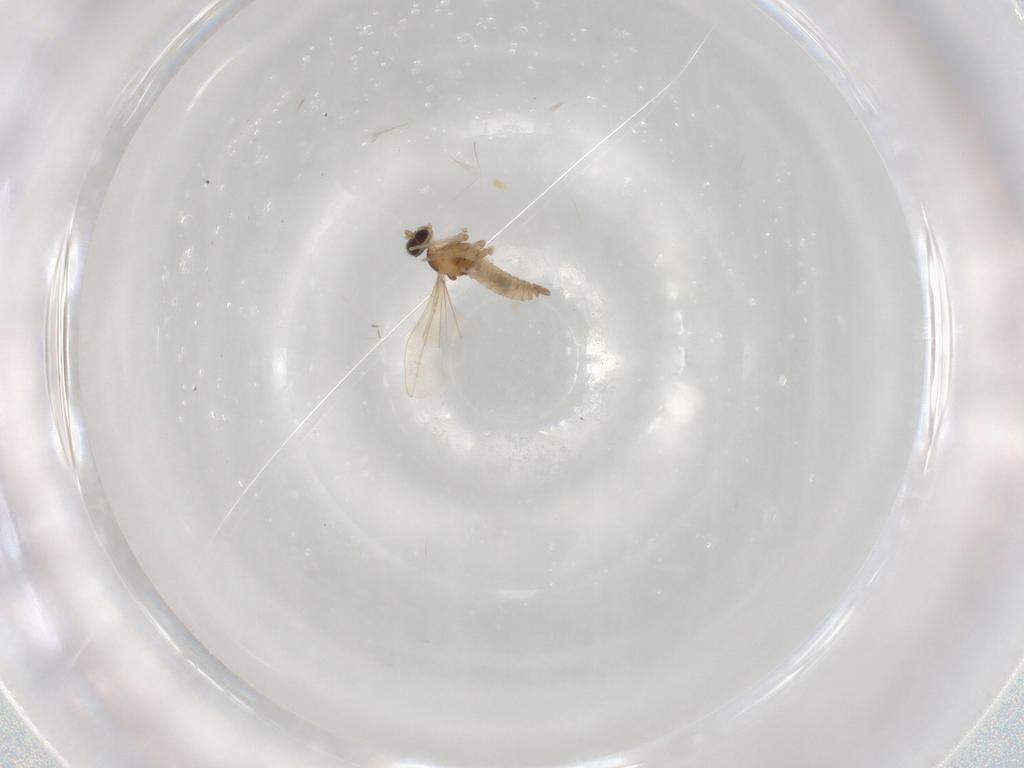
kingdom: Animalia
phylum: Arthropoda
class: Insecta
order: Diptera
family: Cecidomyiidae
